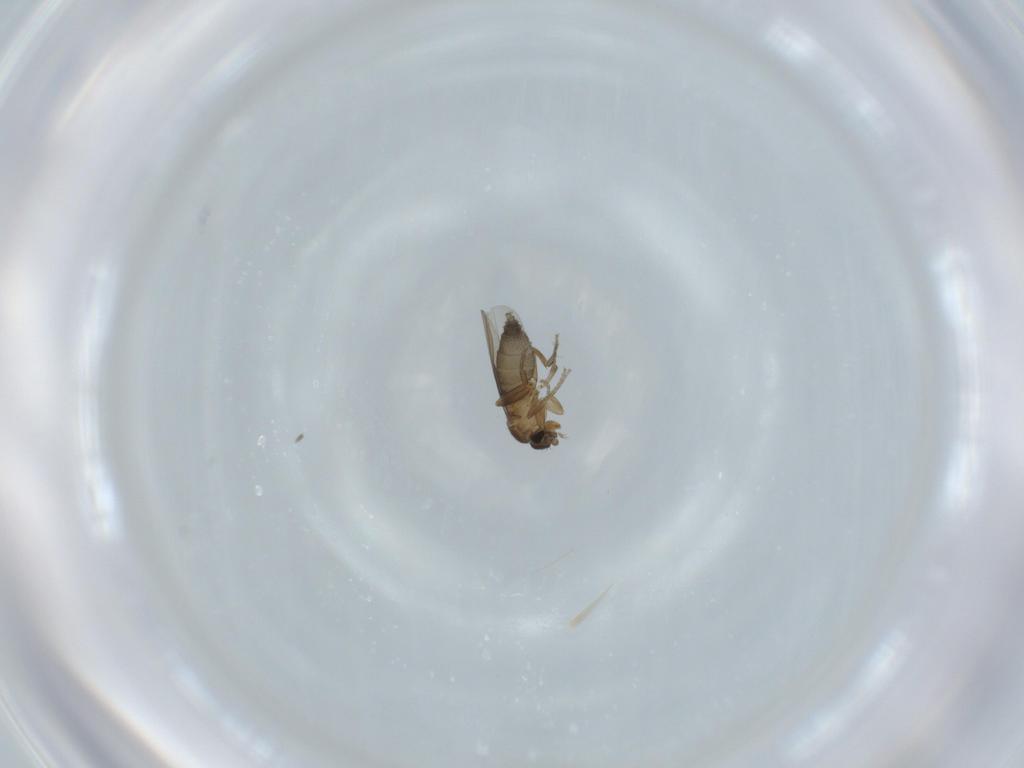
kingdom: Animalia
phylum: Arthropoda
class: Insecta
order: Diptera
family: Phoridae
